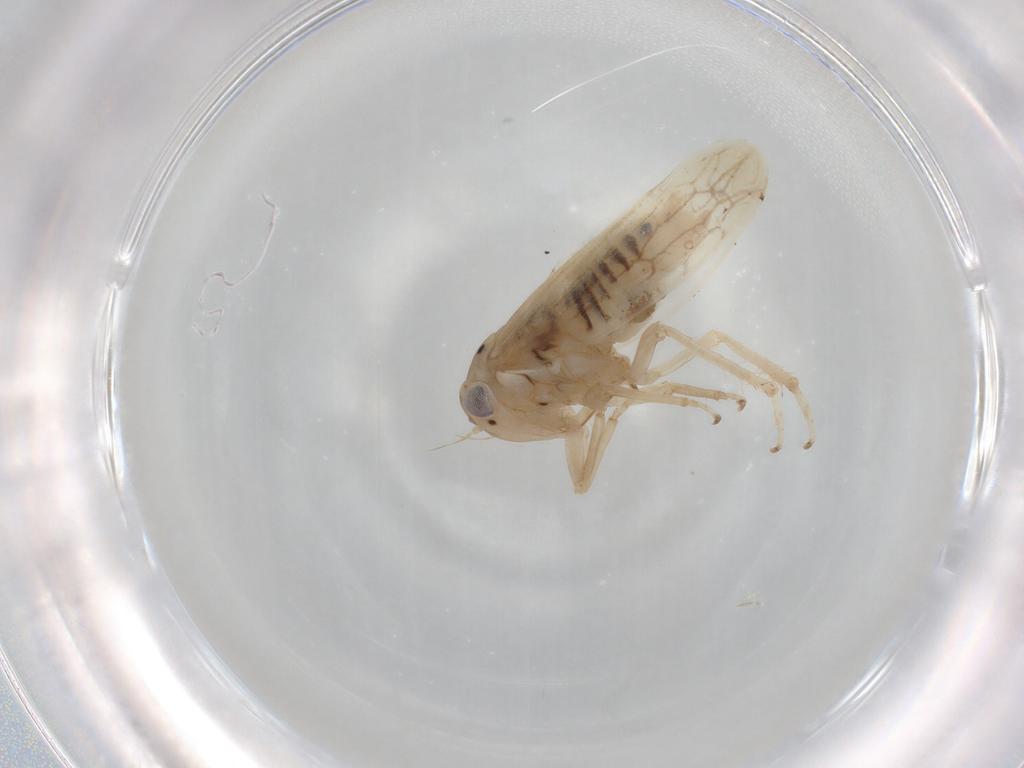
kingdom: Animalia
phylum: Arthropoda
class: Insecta
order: Hemiptera
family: Cicadellidae
